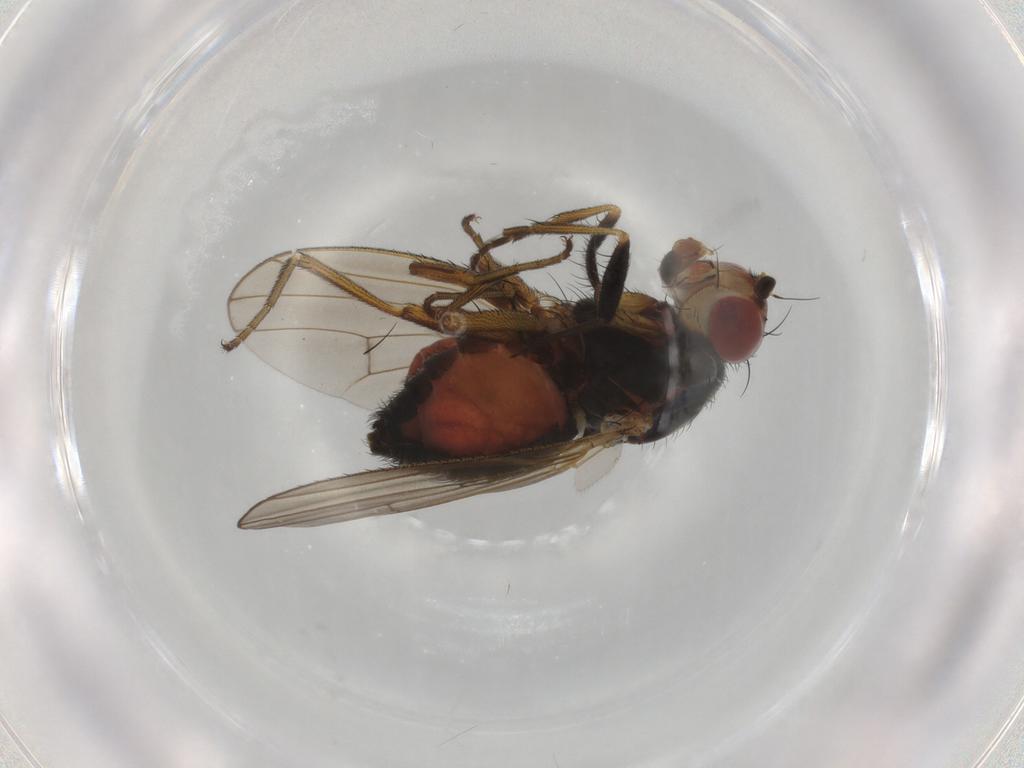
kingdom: Animalia
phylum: Arthropoda
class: Insecta
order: Diptera
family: Heleomyzidae
